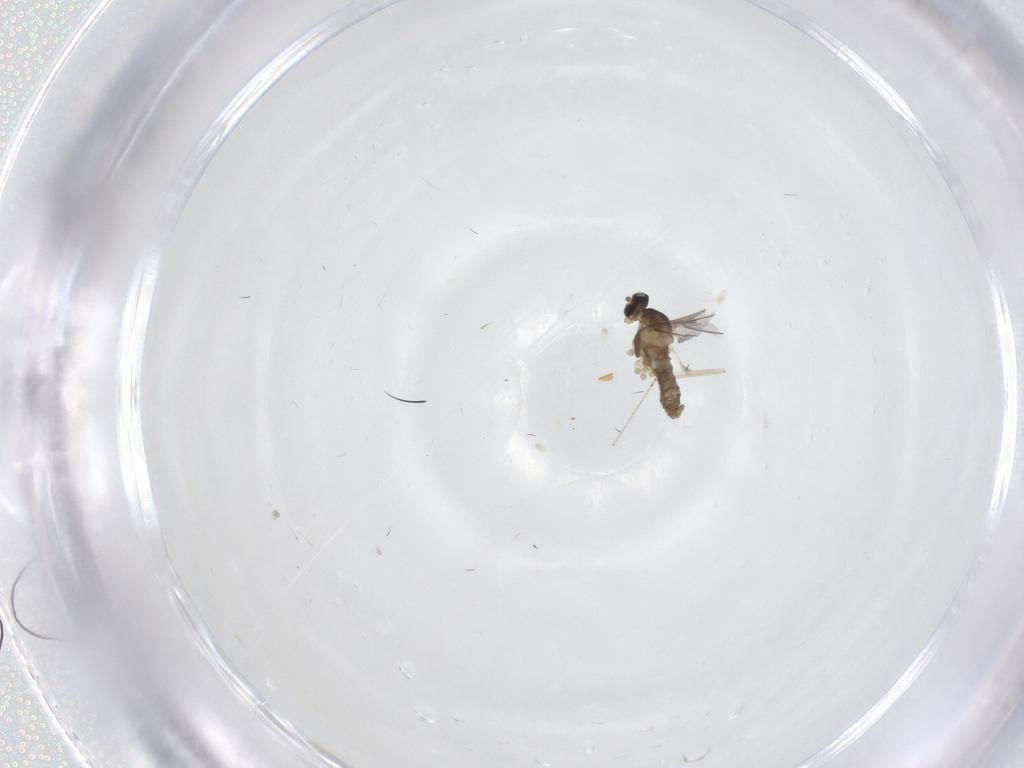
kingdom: Animalia
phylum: Arthropoda
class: Insecta
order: Diptera
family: Tipulidae
